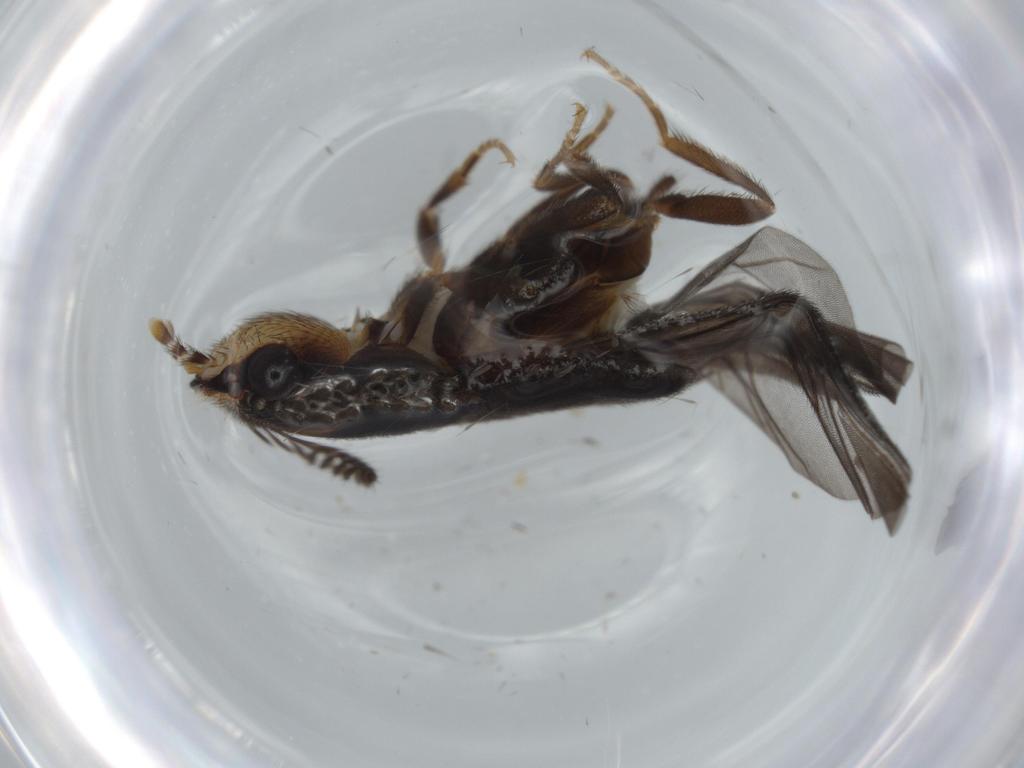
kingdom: Animalia
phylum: Arthropoda
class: Insecta
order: Coleoptera
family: Phengodidae
